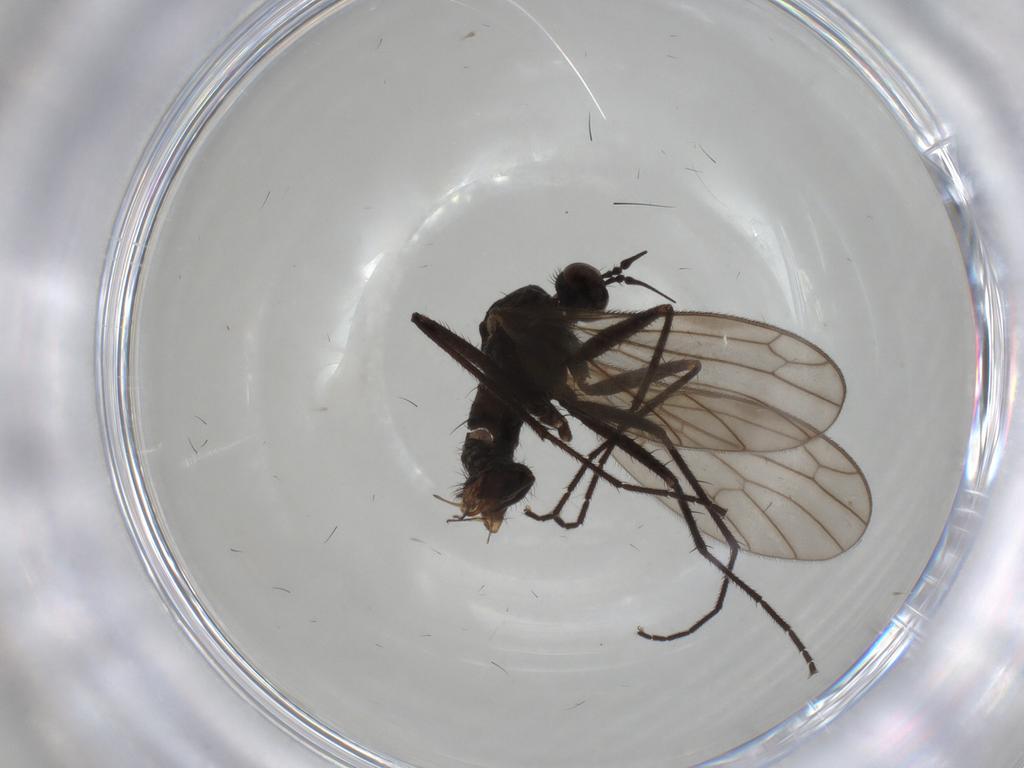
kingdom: Animalia
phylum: Arthropoda
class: Insecta
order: Diptera
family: Empididae
